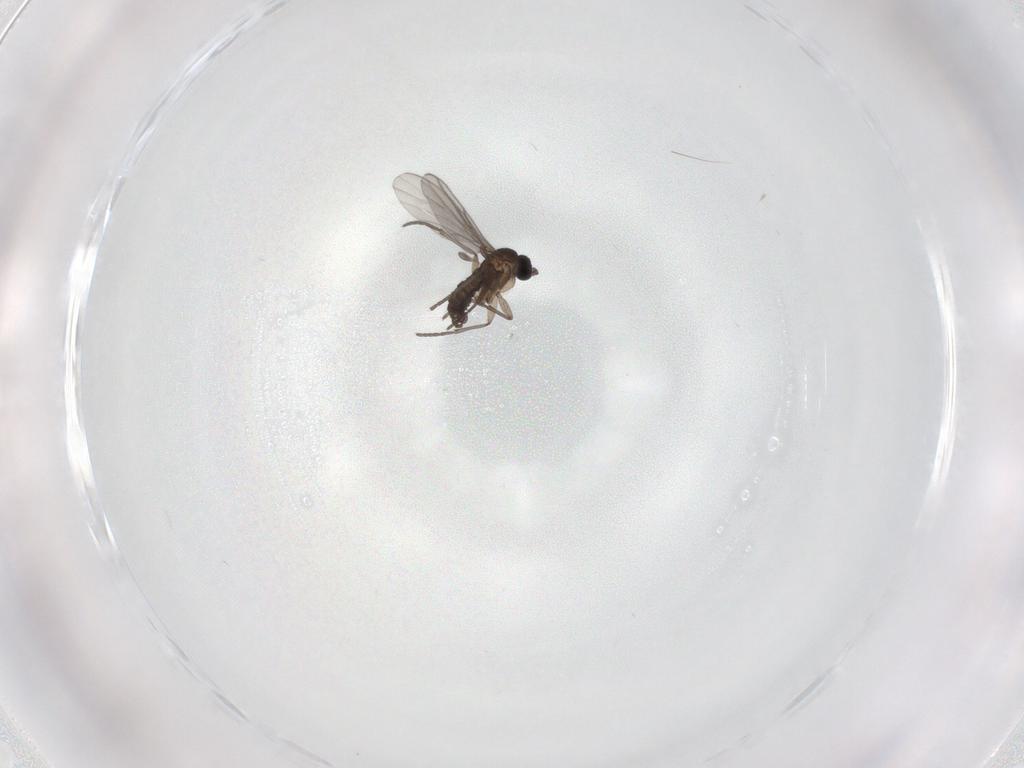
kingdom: Animalia
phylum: Arthropoda
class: Insecta
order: Diptera
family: Sciaridae
